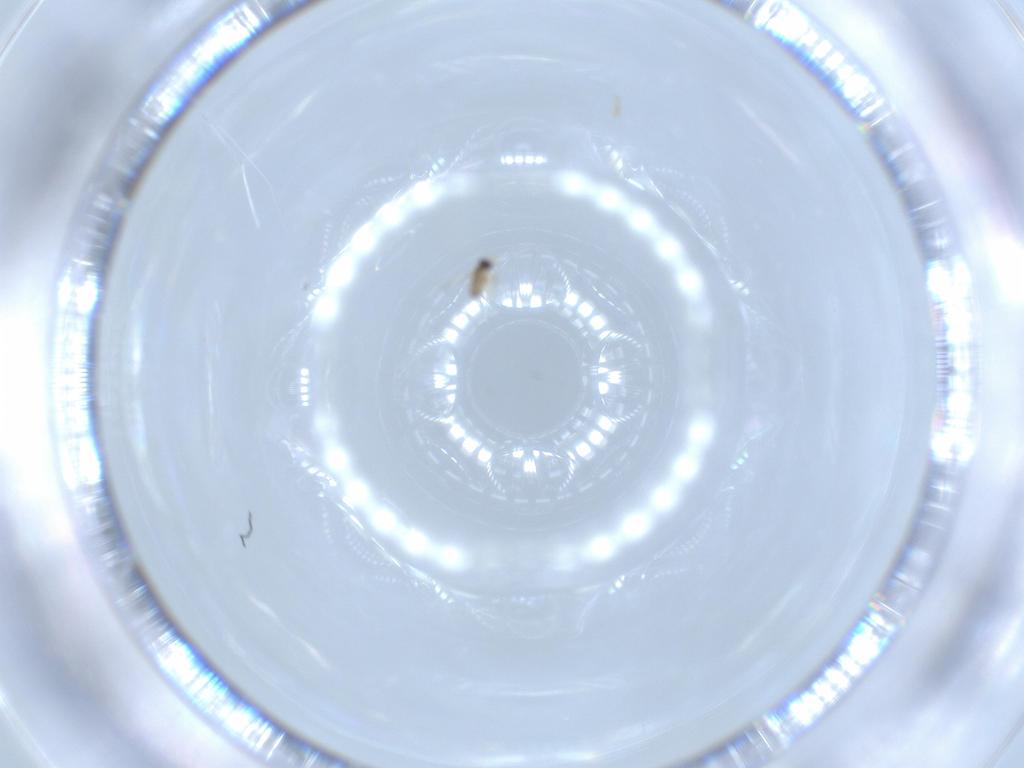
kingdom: Animalia
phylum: Arthropoda
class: Insecta
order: Hymenoptera
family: Mymaridae
